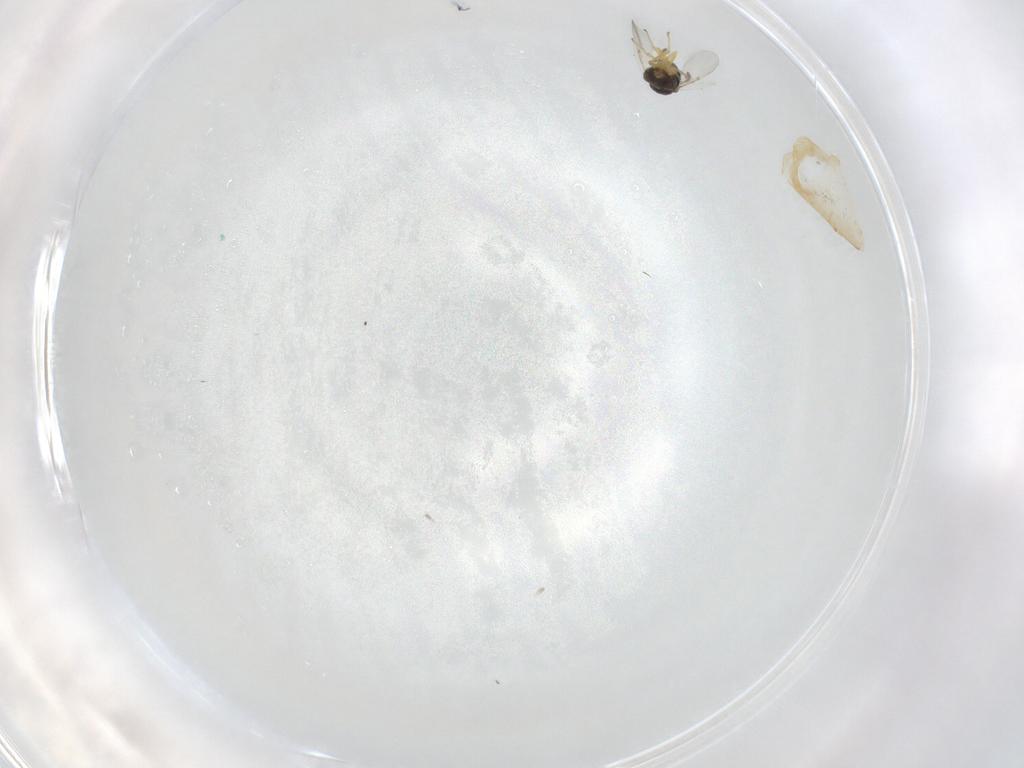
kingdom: Animalia
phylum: Arthropoda
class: Insecta
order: Hymenoptera
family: Encyrtidae
